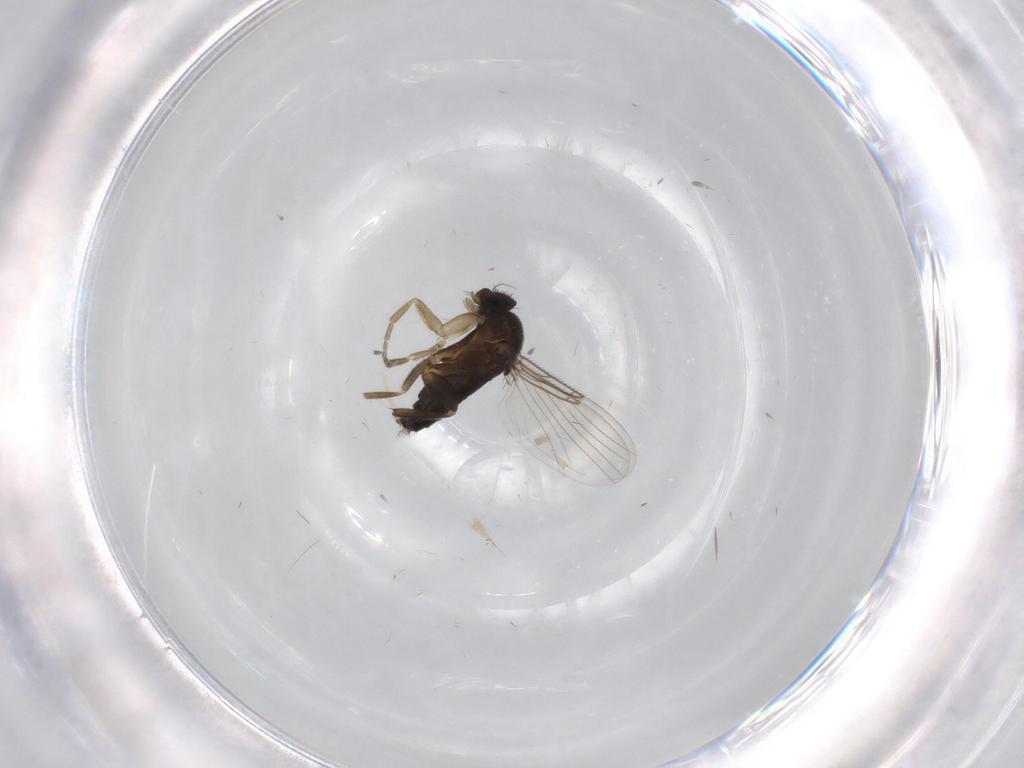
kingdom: Animalia
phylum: Arthropoda
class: Insecta
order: Diptera
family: Phoridae
